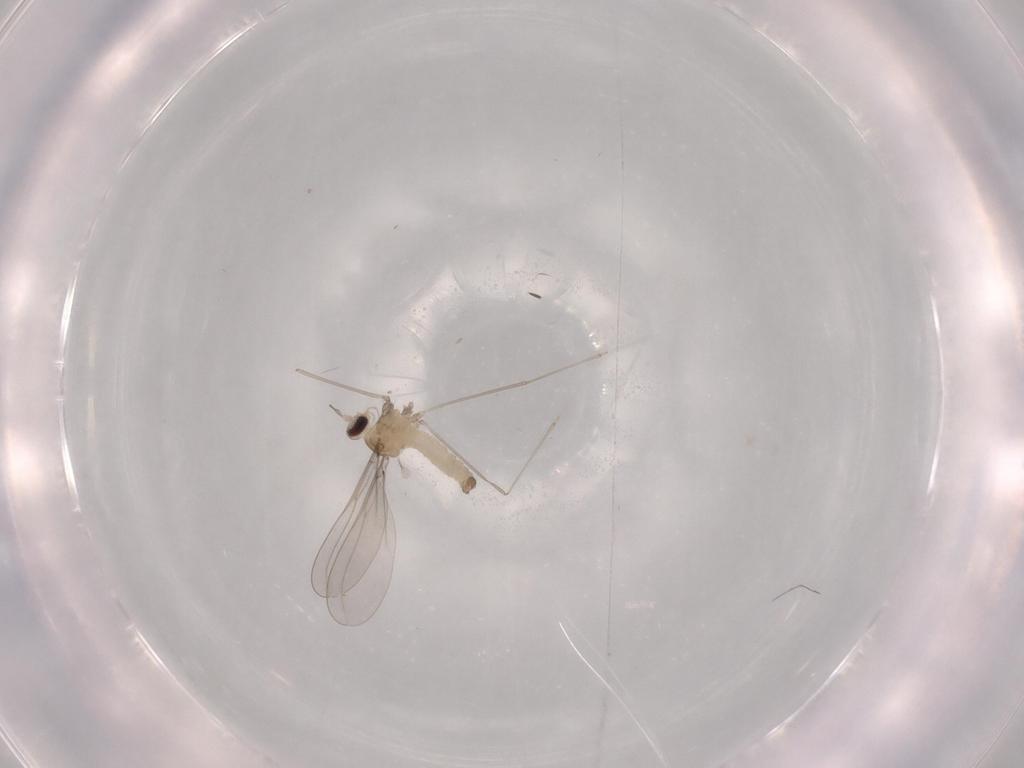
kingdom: Animalia
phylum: Arthropoda
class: Insecta
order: Diptera
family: Cecidomyiidae
